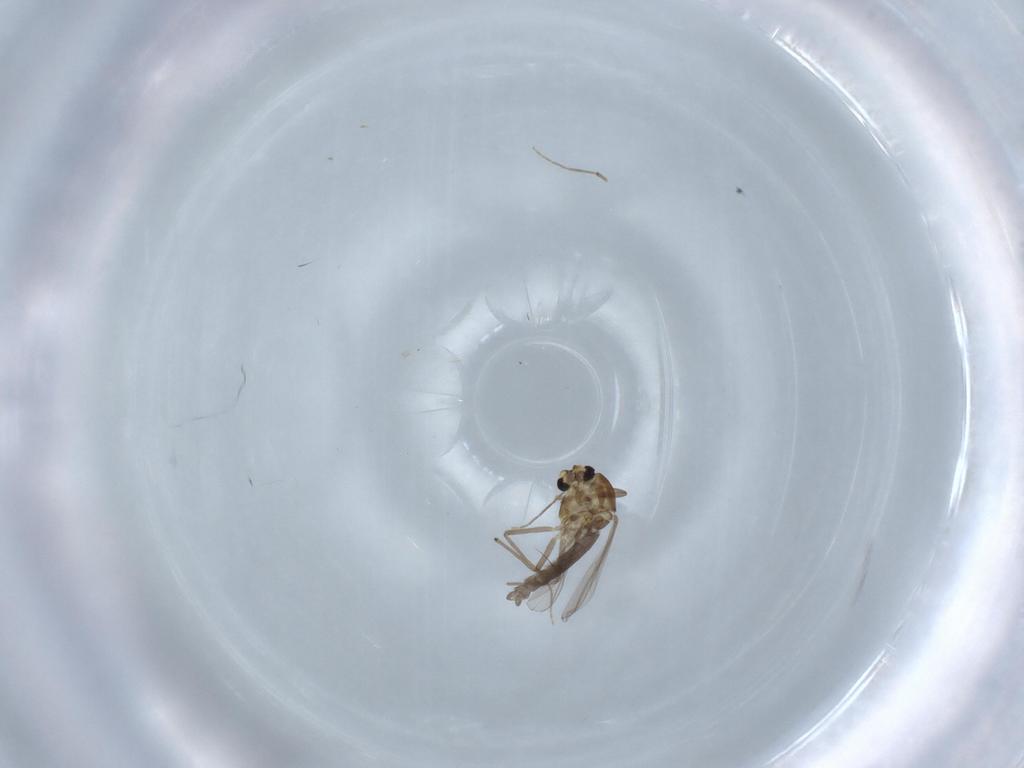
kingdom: Animalia
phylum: Arthropoda
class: Insecta
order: Diptera
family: Chironomidae
